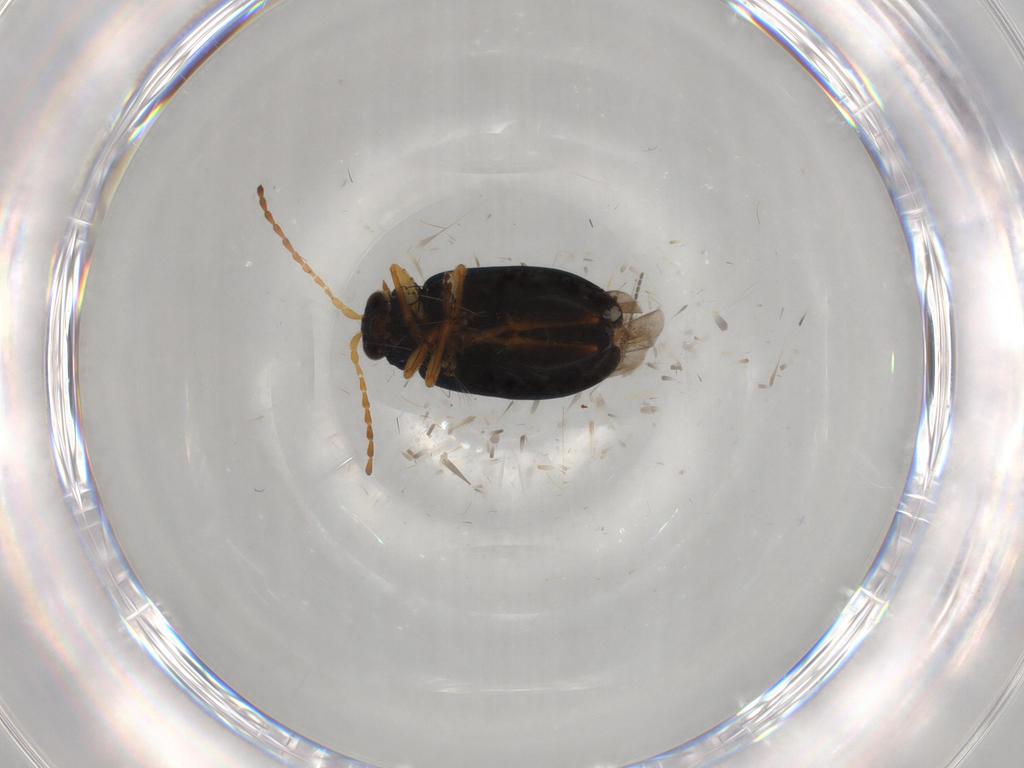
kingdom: Animalia
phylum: Arthropoda
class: Insecta
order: Coleoptera
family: Chrysomelidae
